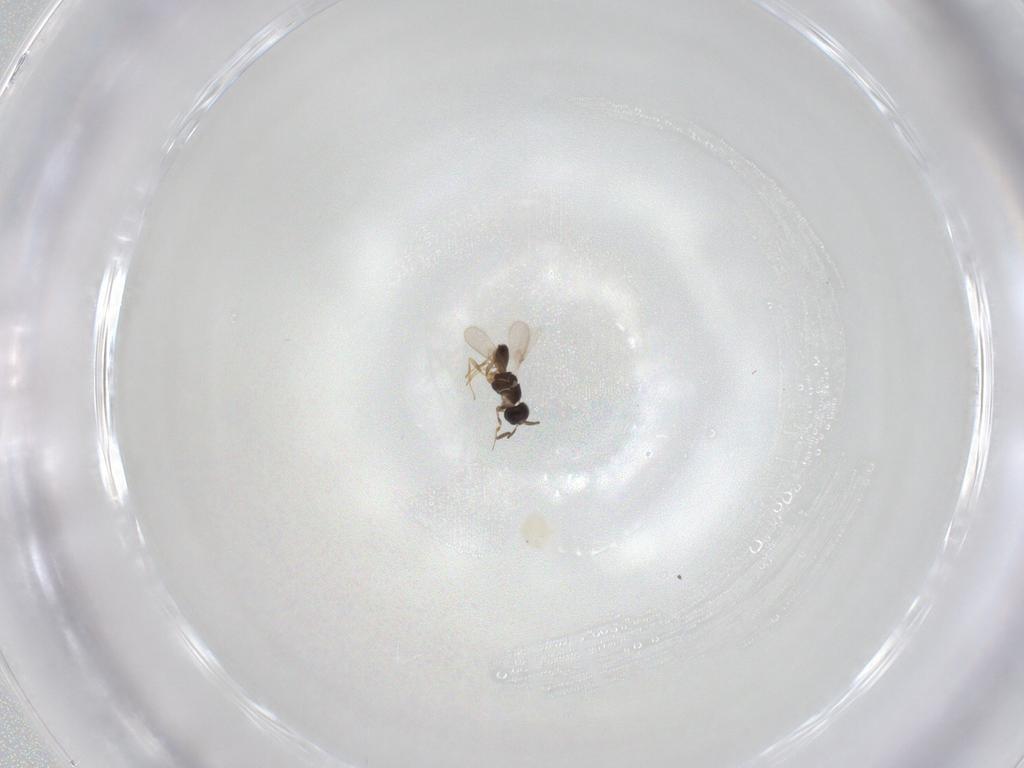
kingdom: Animalia
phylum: Arthropoda
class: Insecta
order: Hymenoptera
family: Scelionidae
